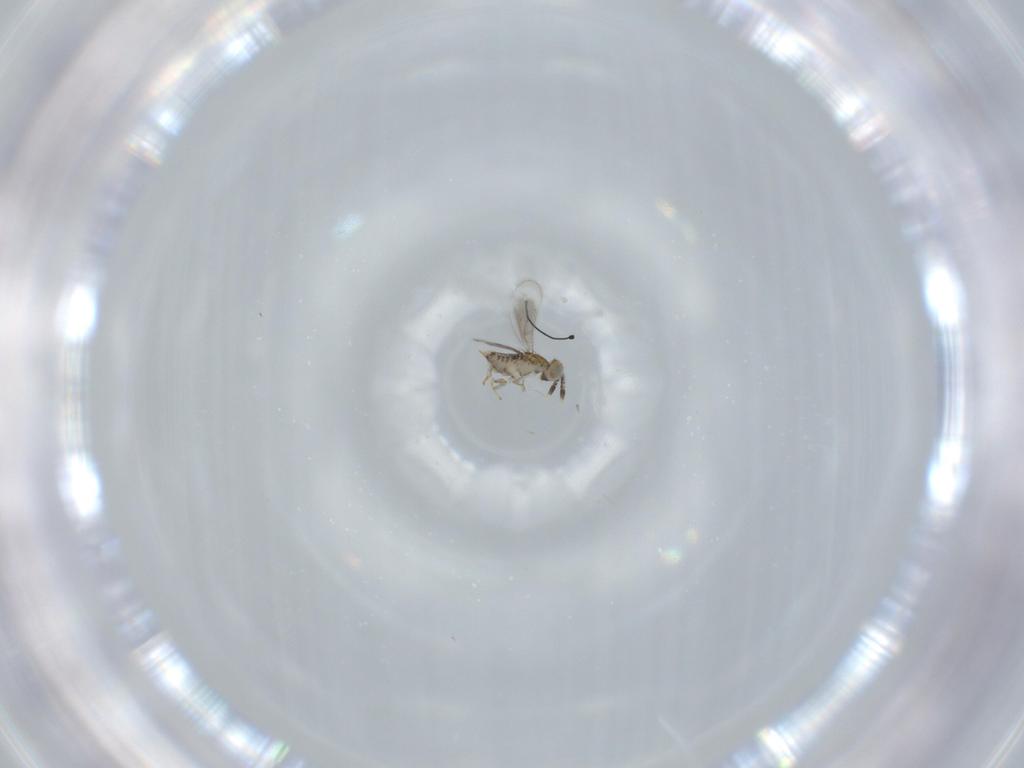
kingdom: Animalia
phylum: Arthropoda
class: Insecta
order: Hymenoptera
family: Aphelinidae
